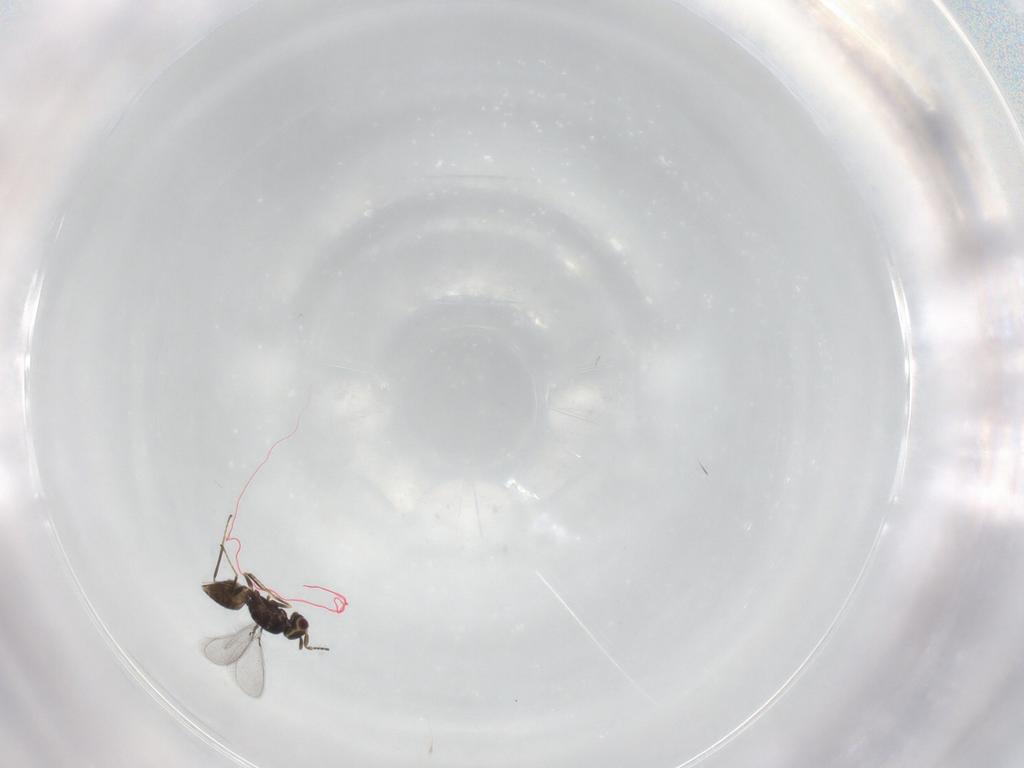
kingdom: Animalia
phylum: Arthropoda
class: Insecta
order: Hymenoptera
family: Mymaridae
